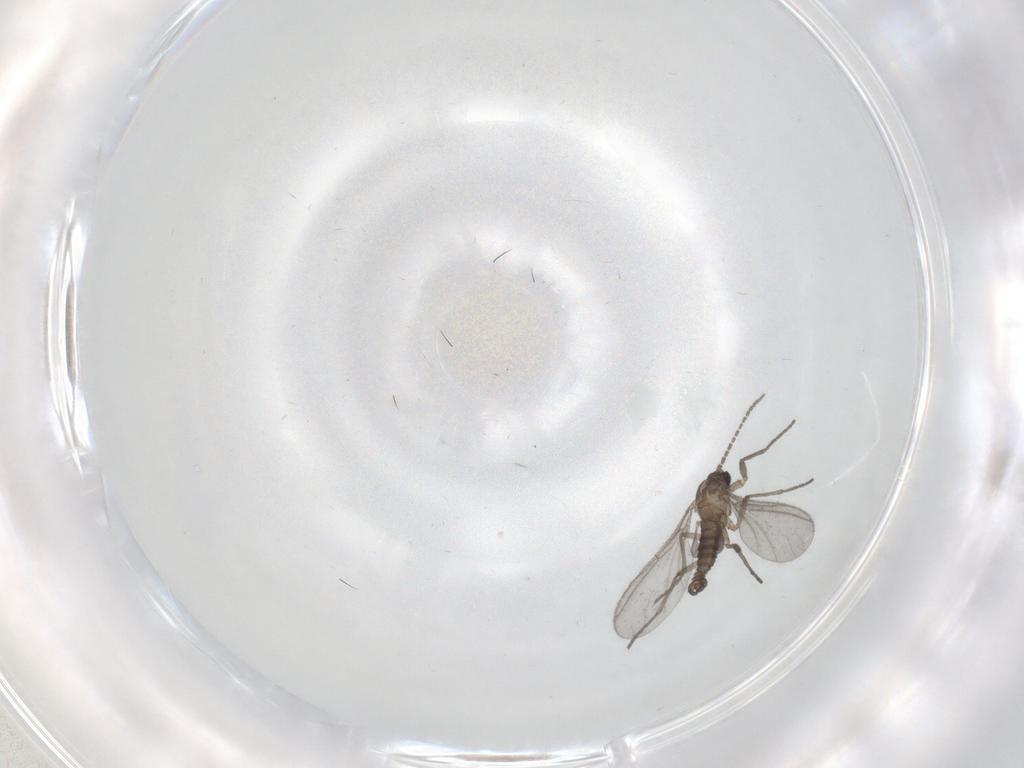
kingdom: Animalia
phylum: Arthropoda
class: Insecta
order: Diptera
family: Sciaridae
